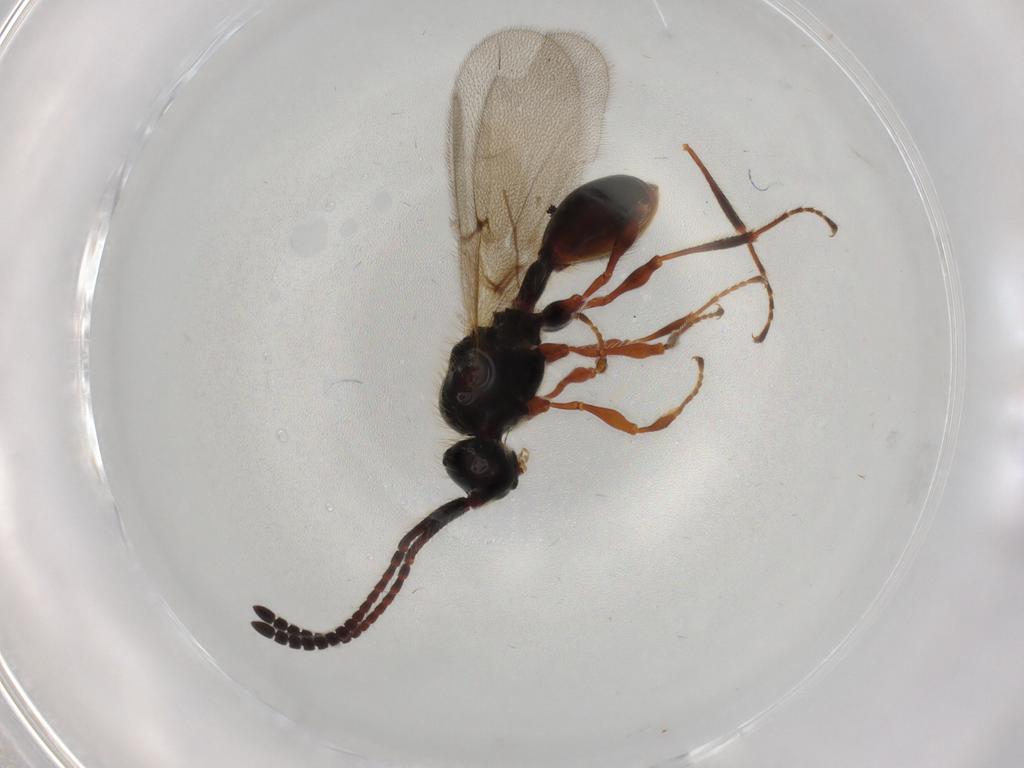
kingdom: Animalia
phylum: Arthropoda
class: Insecta
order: Hymenoptera
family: Diapriidae
